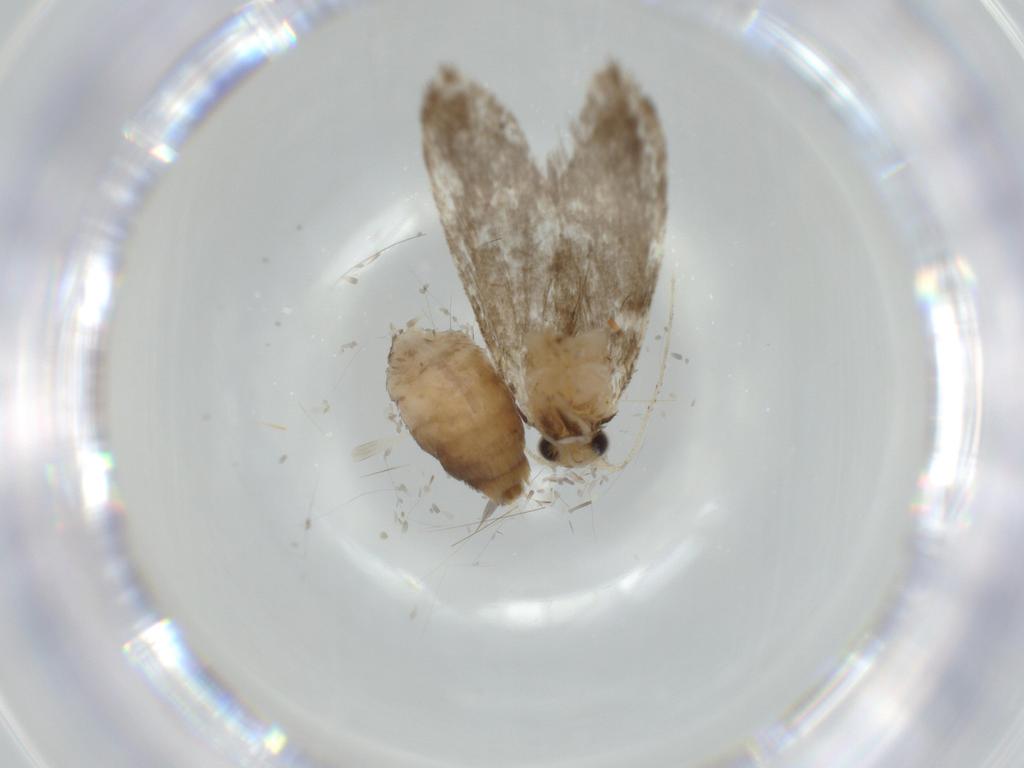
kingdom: Animalia
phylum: Arthropoda
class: Insecta
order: Lepidoptera
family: Tineidae
